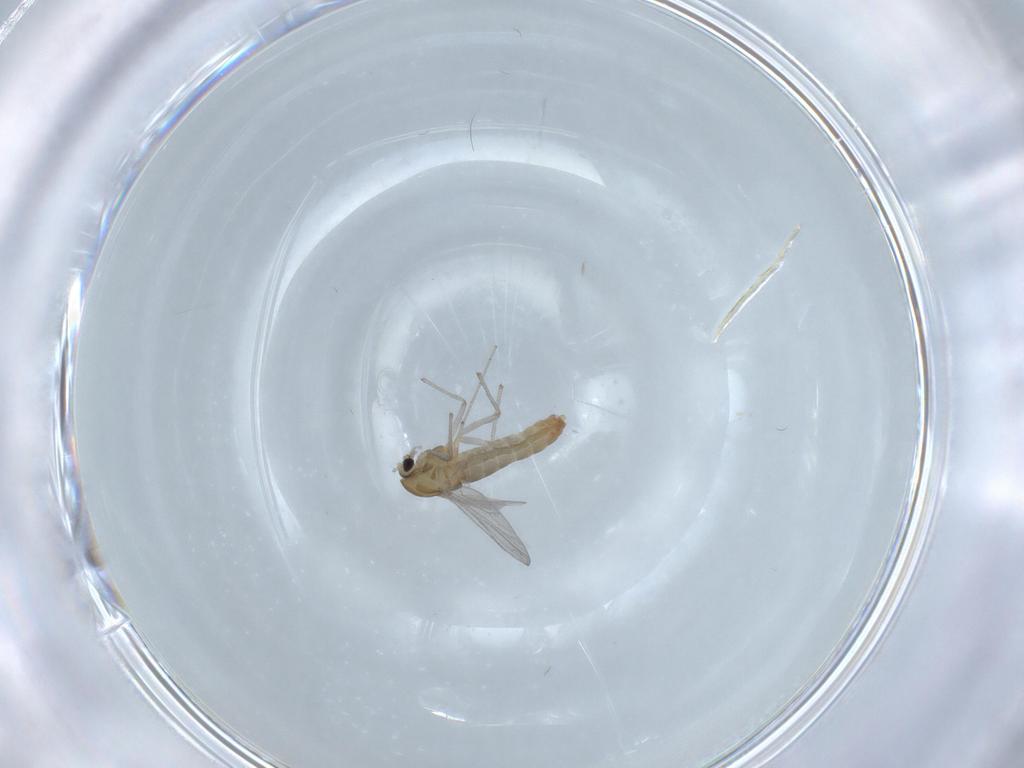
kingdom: Animalia
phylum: Arthropoda
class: Insecta
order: Diptera
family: Chironomidae
